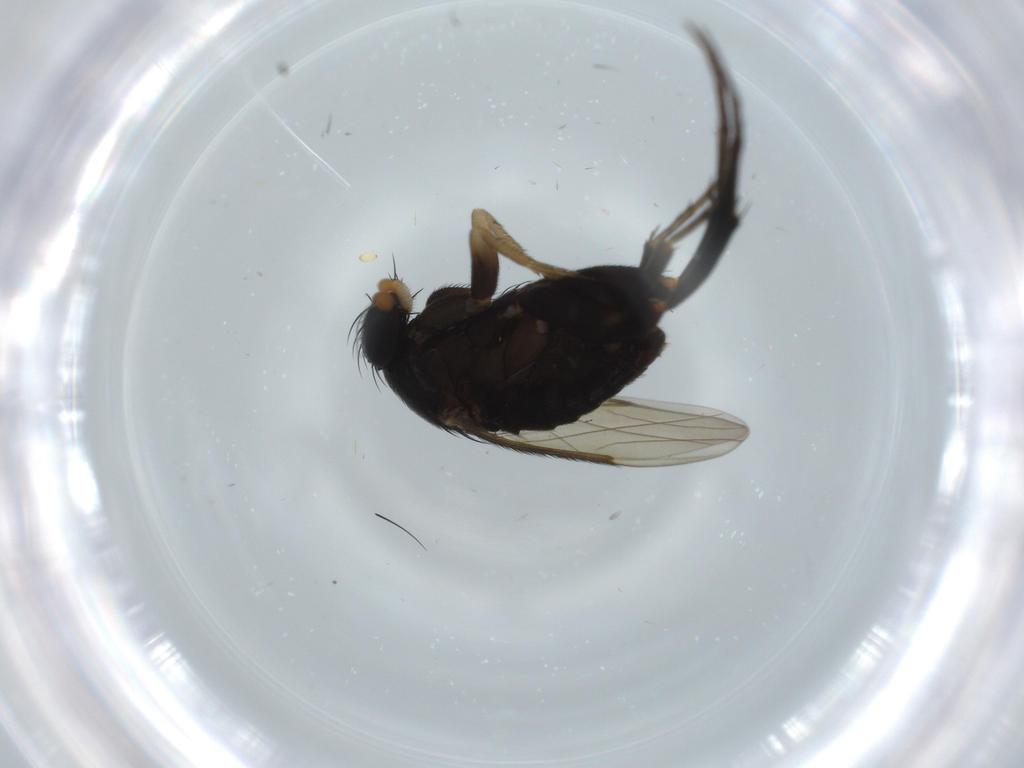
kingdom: Animalia
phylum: Arthropoda
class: Insecta
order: Diptera
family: Phoridae
